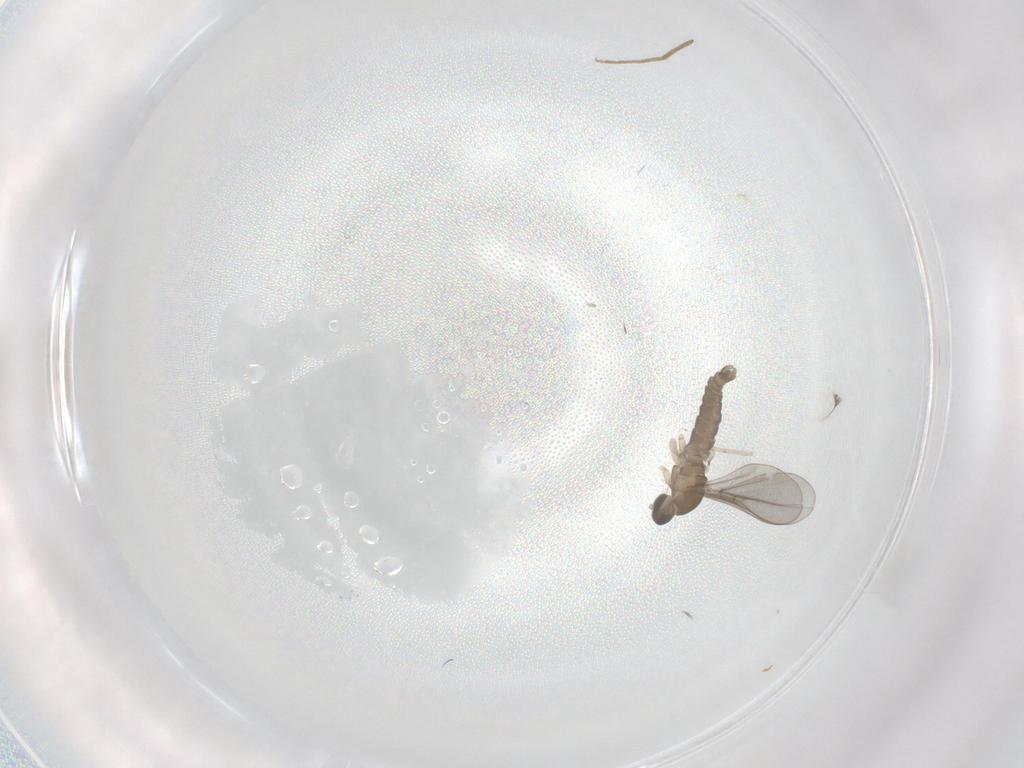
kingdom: Animalia
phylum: Arthropoda
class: Insecta
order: Diptera
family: Cecidomyiidae
